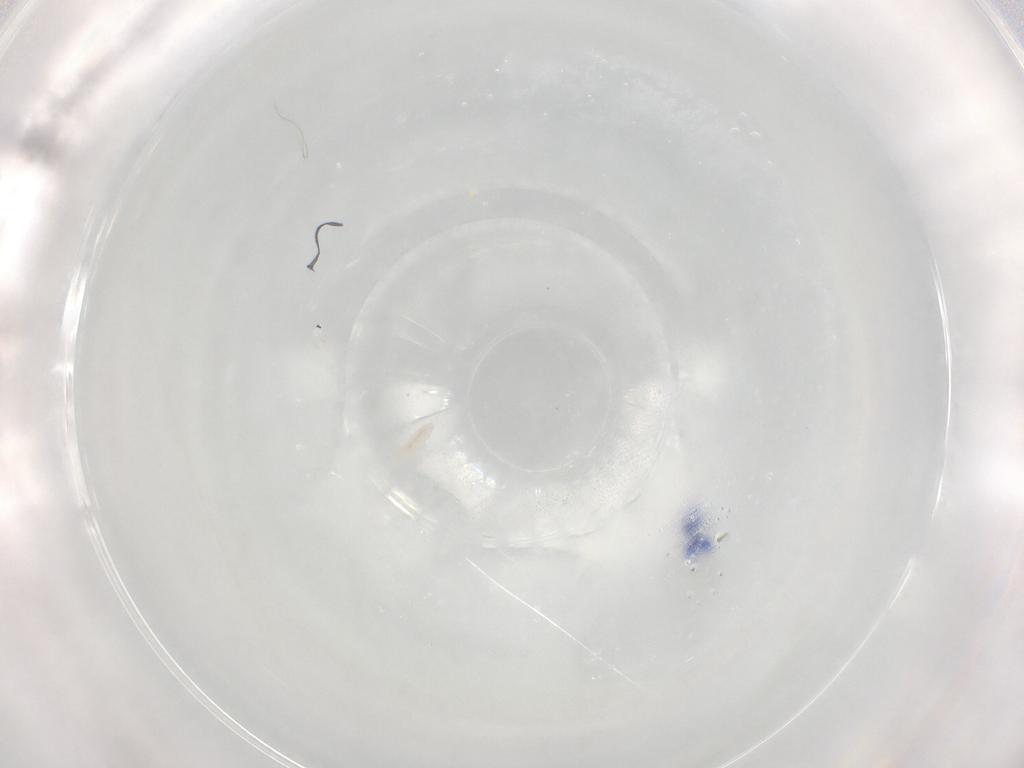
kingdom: Animalia
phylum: Arthropoda
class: Collembola
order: Entomobryomorpha
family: Entomobryidae
